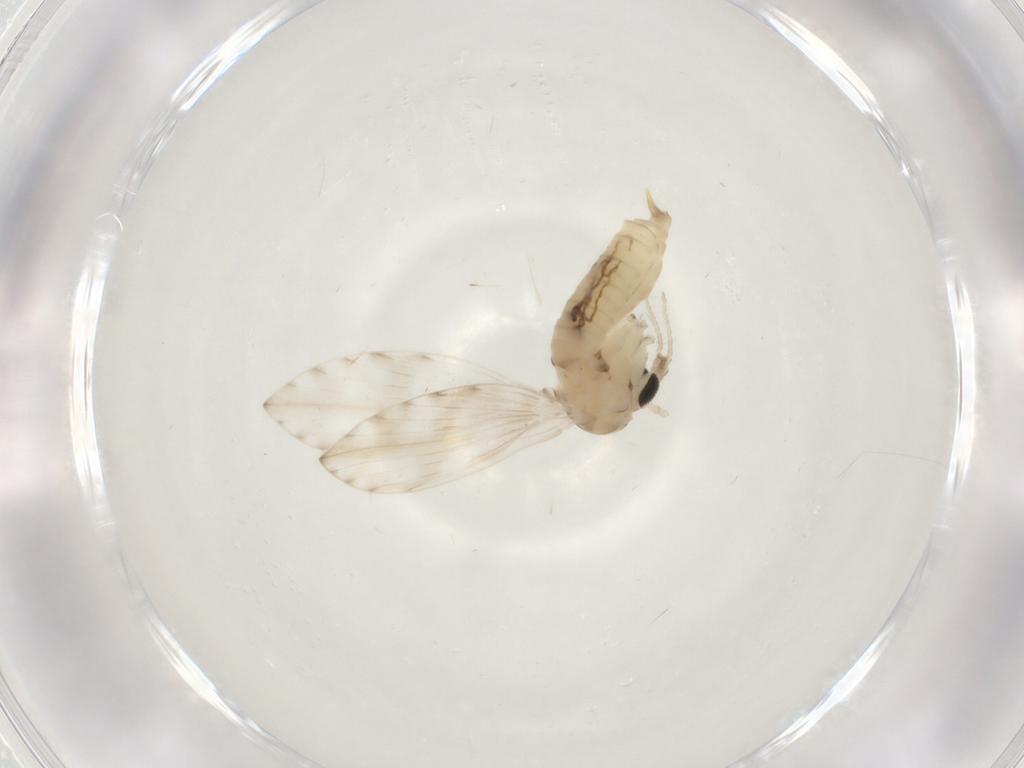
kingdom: Animalia
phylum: Arthropoda
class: Insecta
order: Diptera
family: Psychodidae
